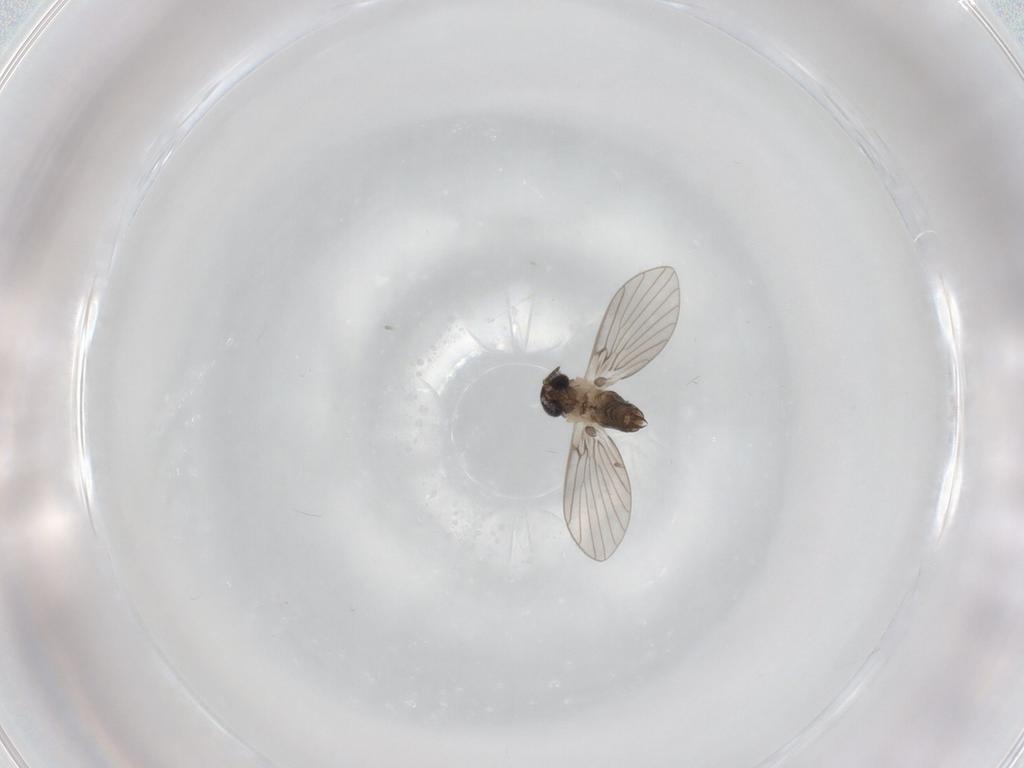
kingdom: Animalia
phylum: Arthropoda
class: Insecta
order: Diptera
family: Psychodidae
